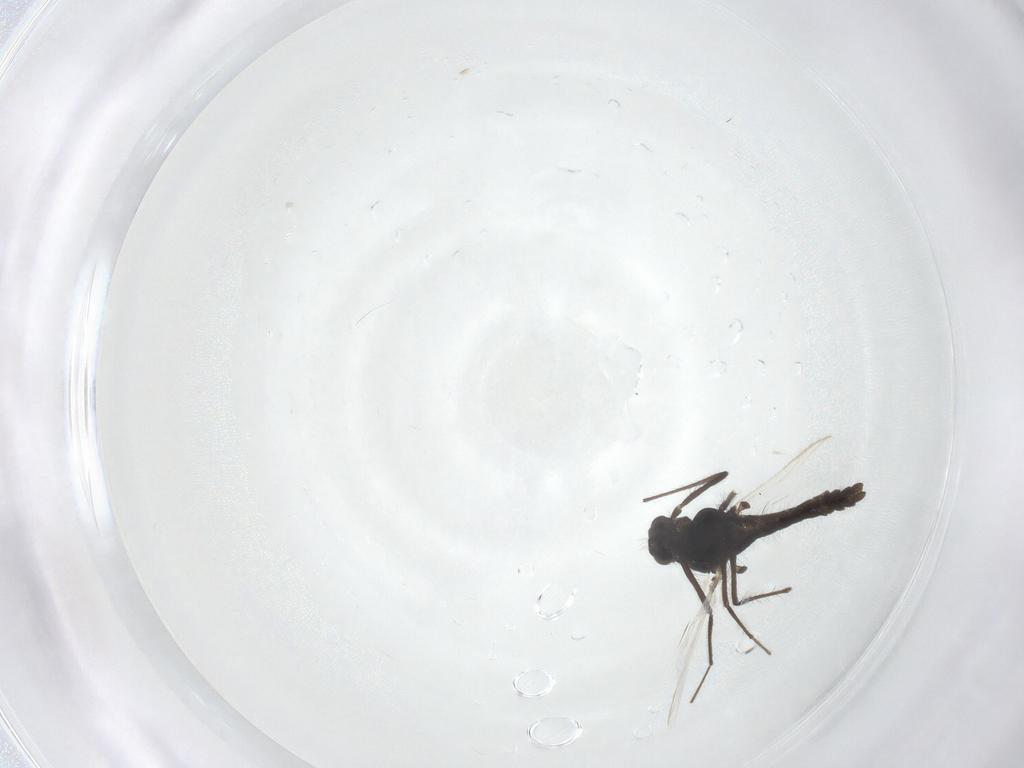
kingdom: Animalia
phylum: Arthropoda
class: Insecta
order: Diptera
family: Chironomidae
